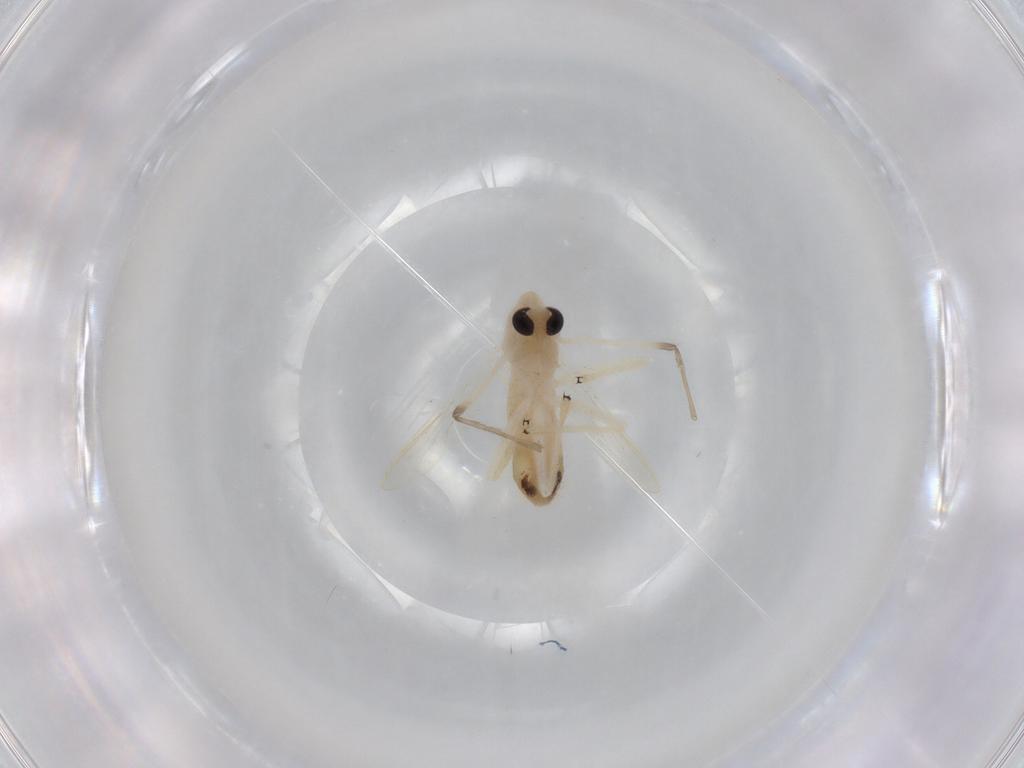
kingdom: Animalia
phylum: Arthropoda
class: Insecta
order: Diptera
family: Chironomidae
